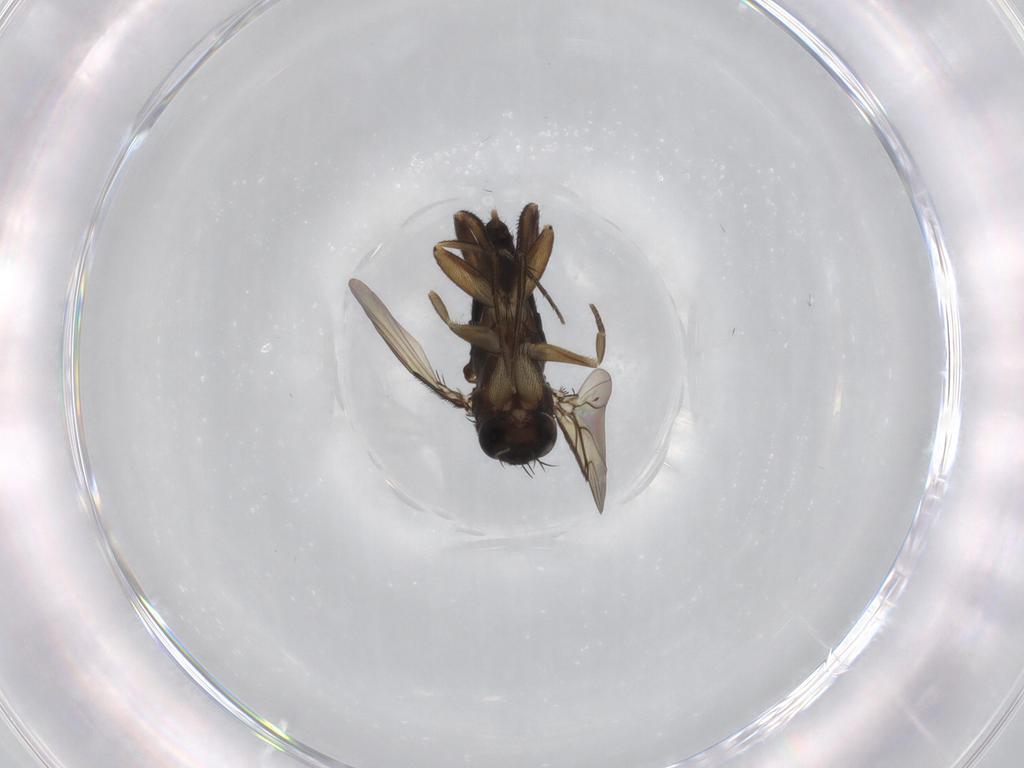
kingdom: Animalia
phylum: Arthropoda
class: Insecta
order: Diptera
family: Phoridae
